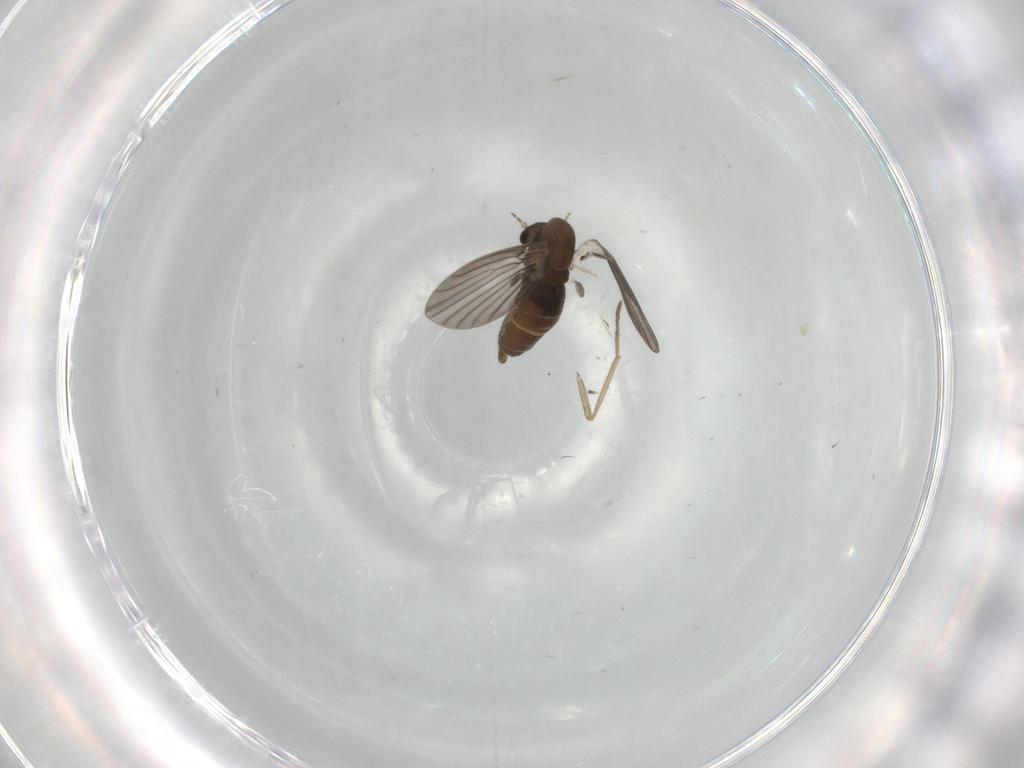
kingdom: Animalia
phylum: Arthropoda
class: Insecta
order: Diptera
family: Chironomidae
